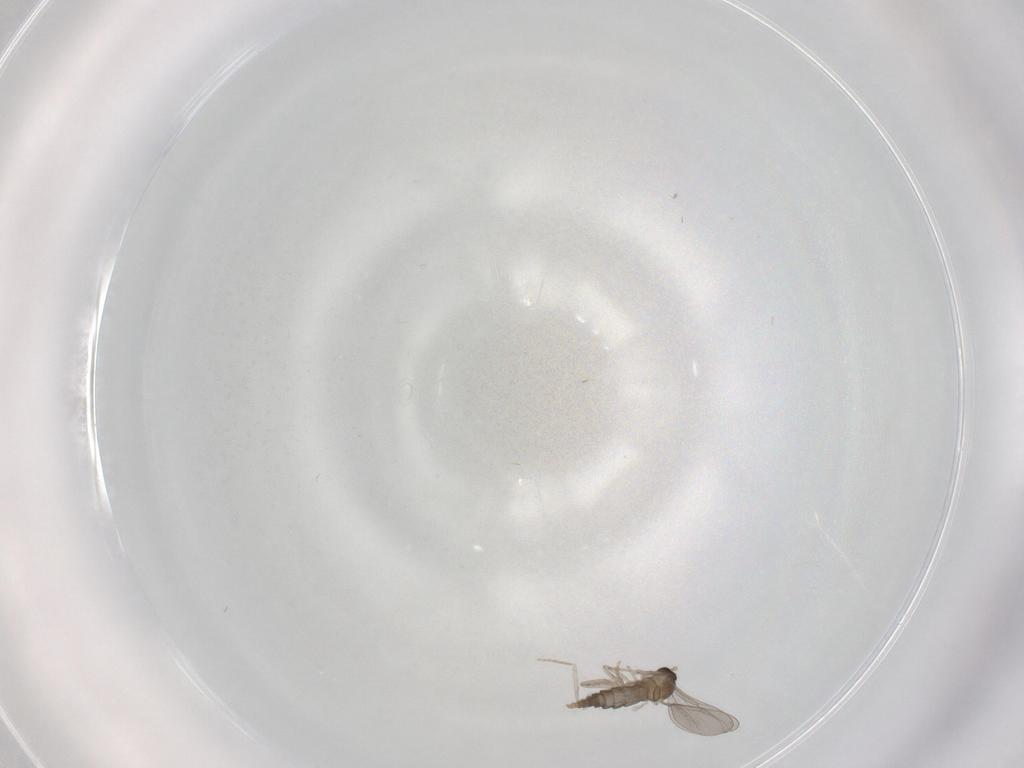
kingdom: Animalia
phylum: Arthropoda
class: Insecta
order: Diptera
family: Cecidomyiidae
